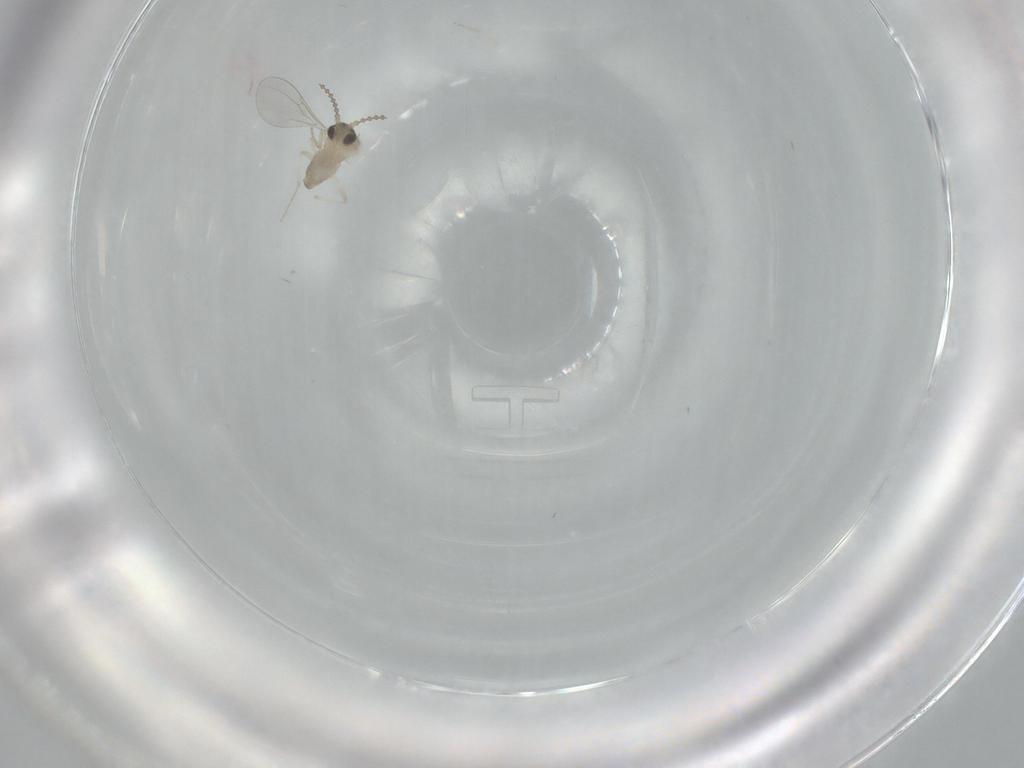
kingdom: Animalia
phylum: Arthropoda
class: Insecta
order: Diptera
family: Cecidomyiidae
